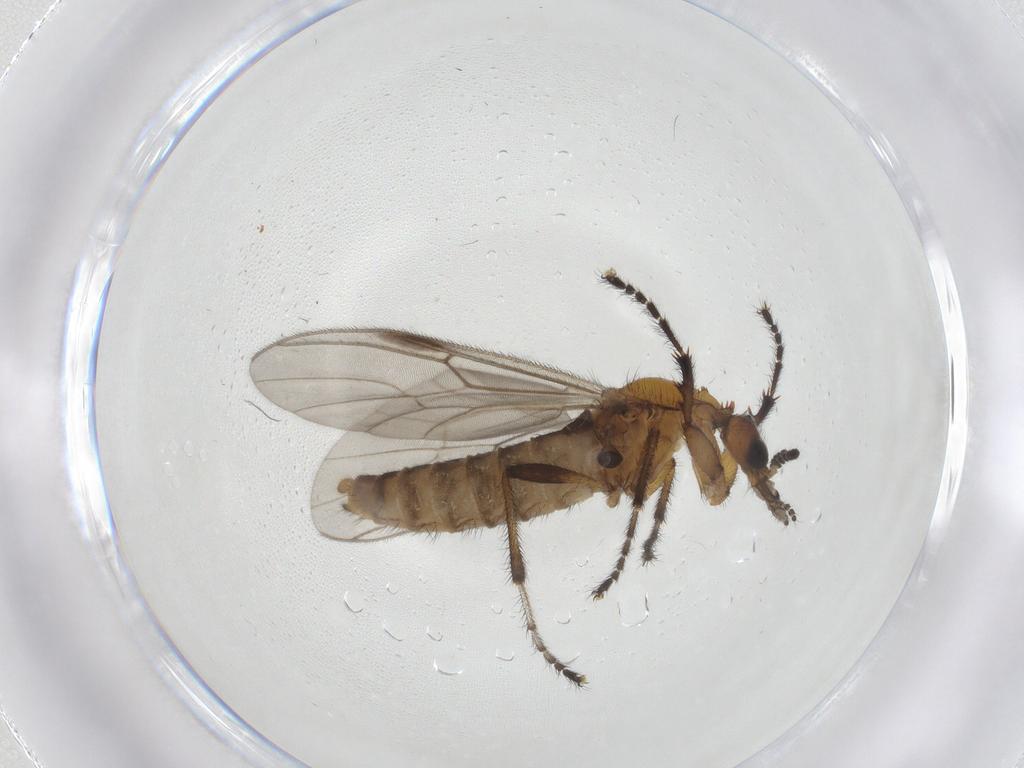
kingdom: Animalia
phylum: Arthropoda
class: Insecta
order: Diptera
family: Bibionidae
